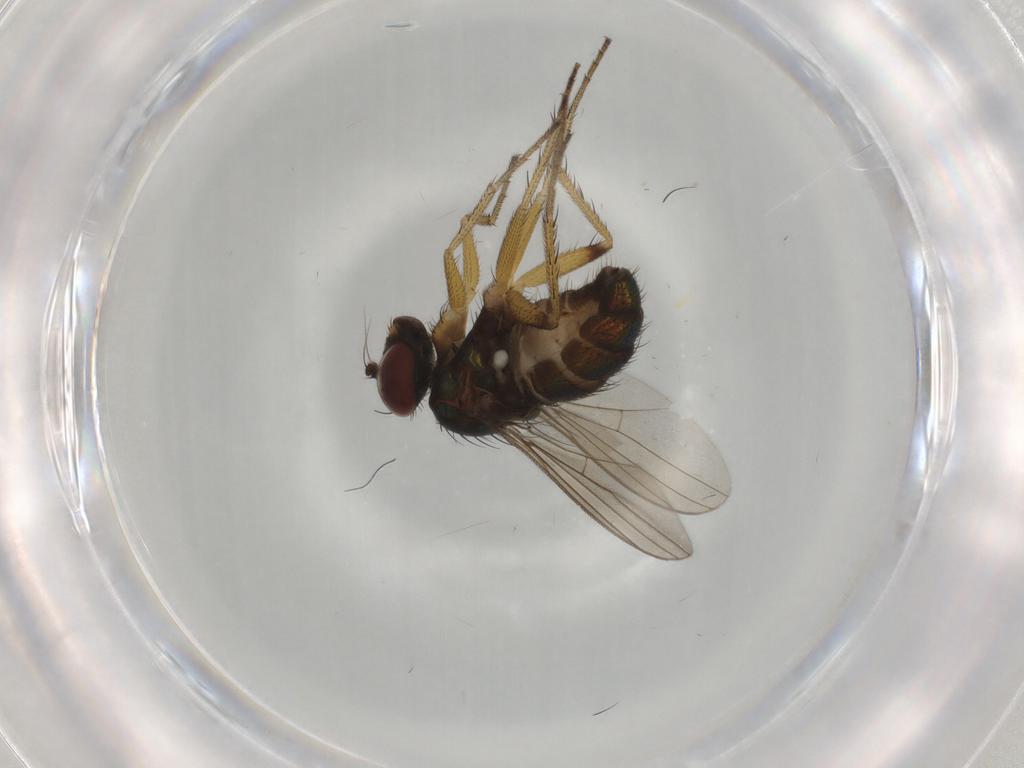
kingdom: Animalia
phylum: Arthropoda
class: Insecta
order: Diptera
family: Dolichopodidae
